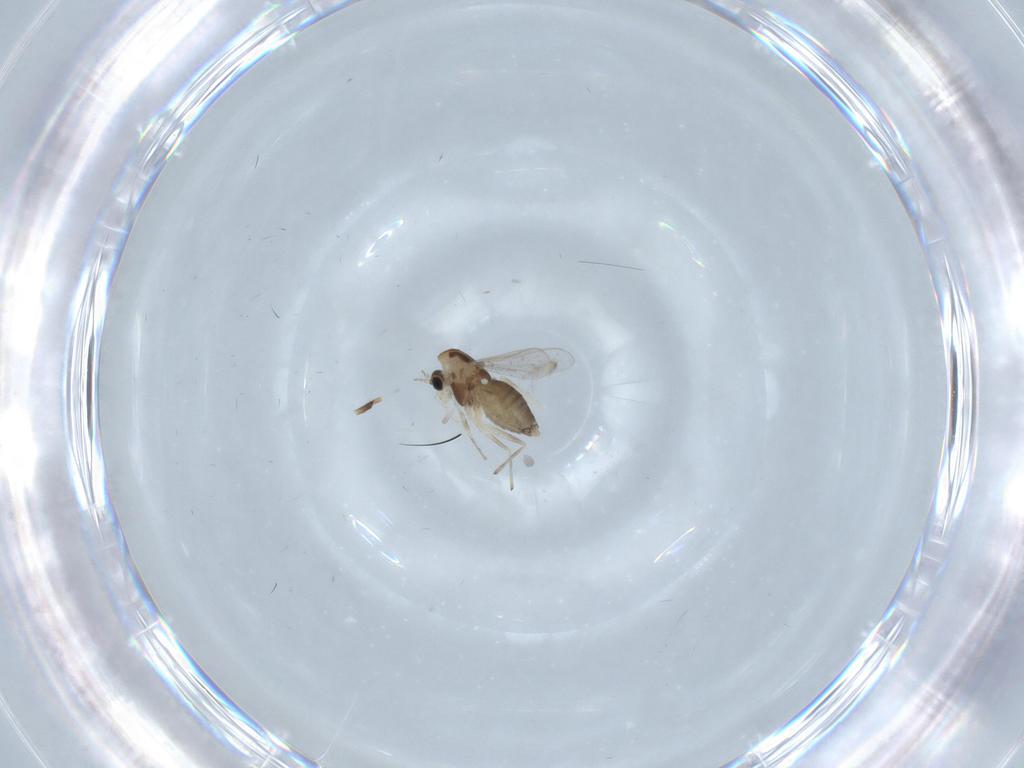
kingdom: Animalia
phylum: Arthropoda
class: Insecta
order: Diptera
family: Chironomidae
